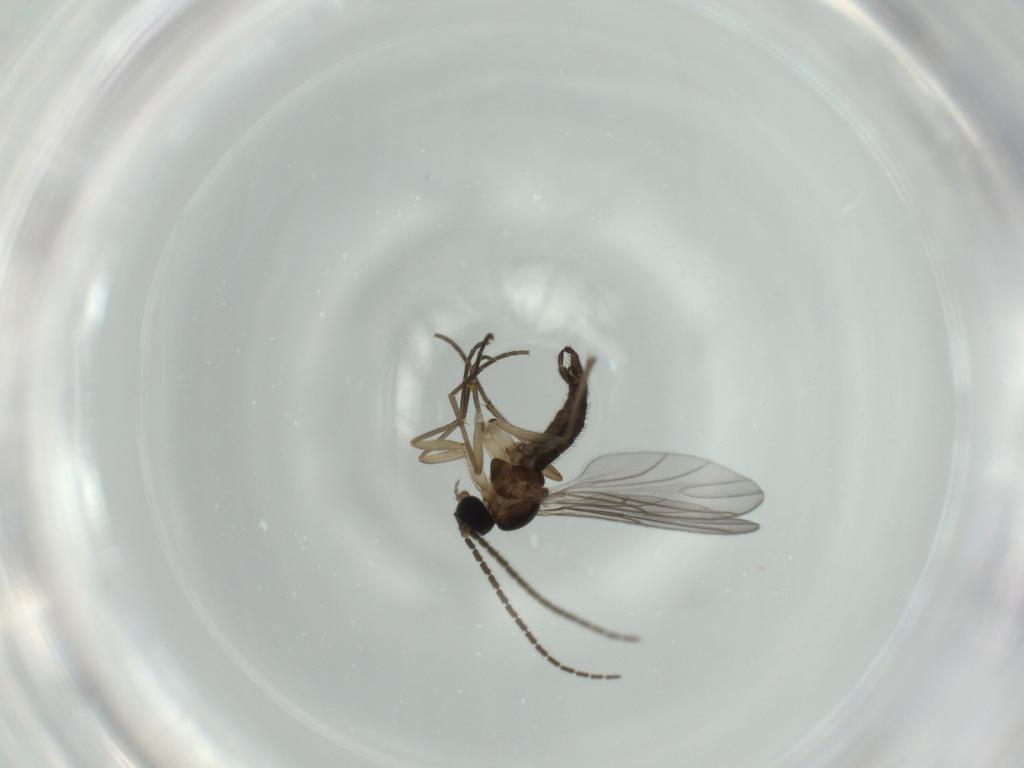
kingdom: Animalia
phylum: Arthropoda
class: Insecta
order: Diptera
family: Sciaridae
